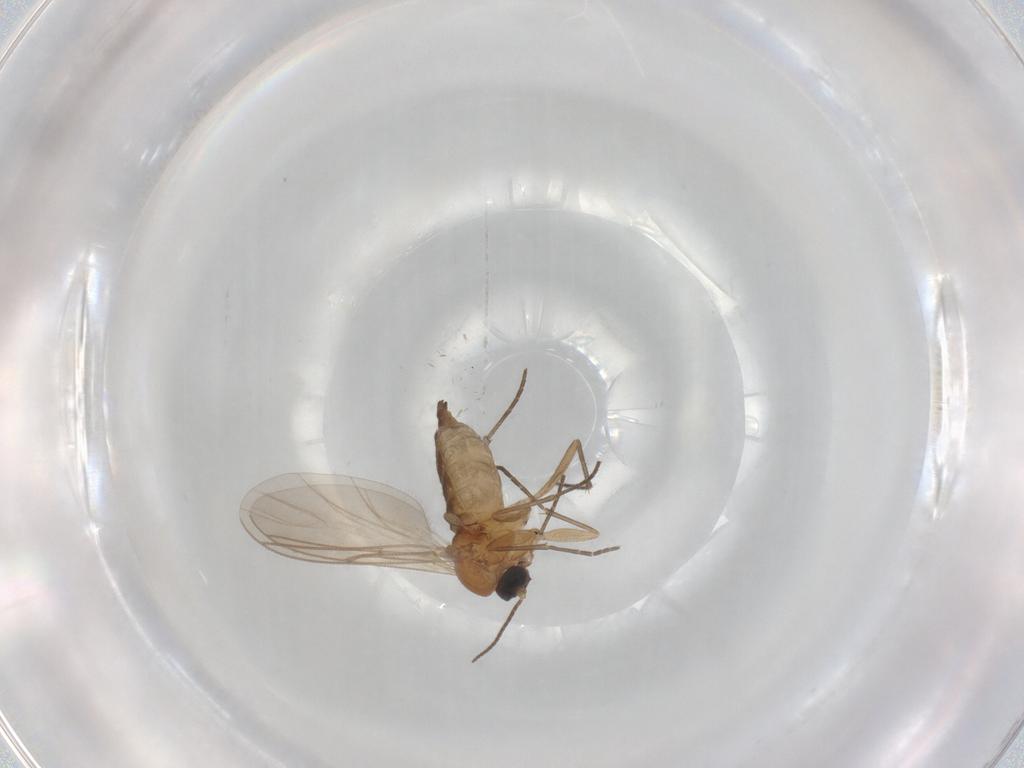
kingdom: Animalia
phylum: Arthropoda
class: Insecta
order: Diptera
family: Sciaridae
